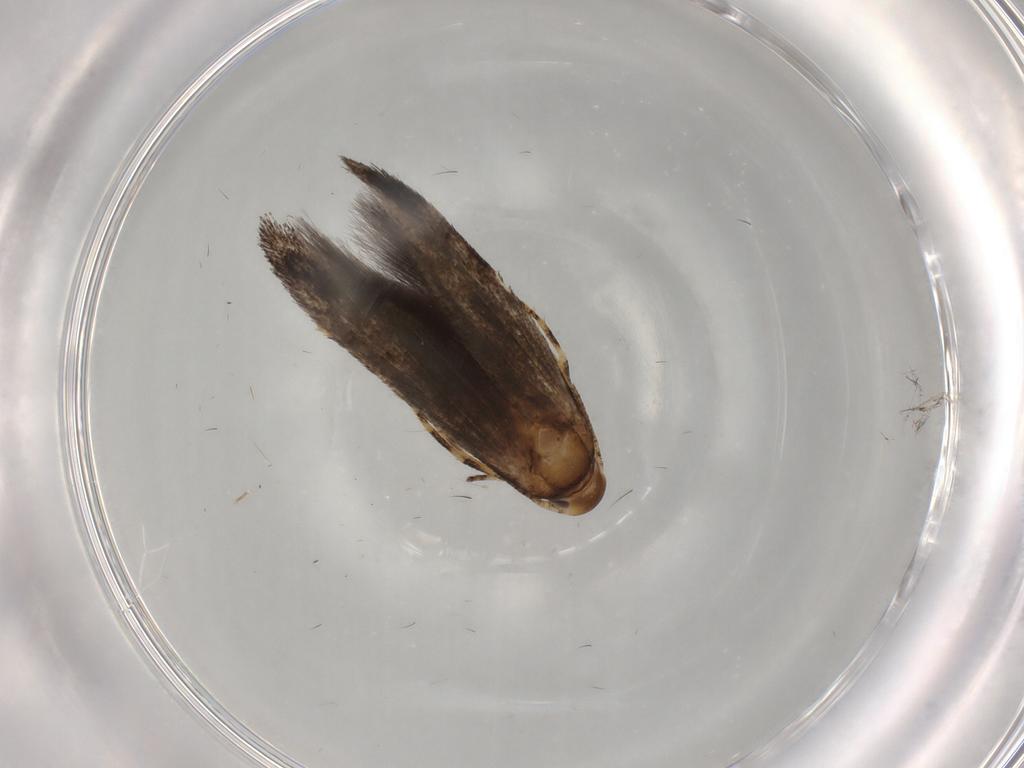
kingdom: Animalia
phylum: Arthropoda
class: Insecta
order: Lepidoptera
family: Momphidae
